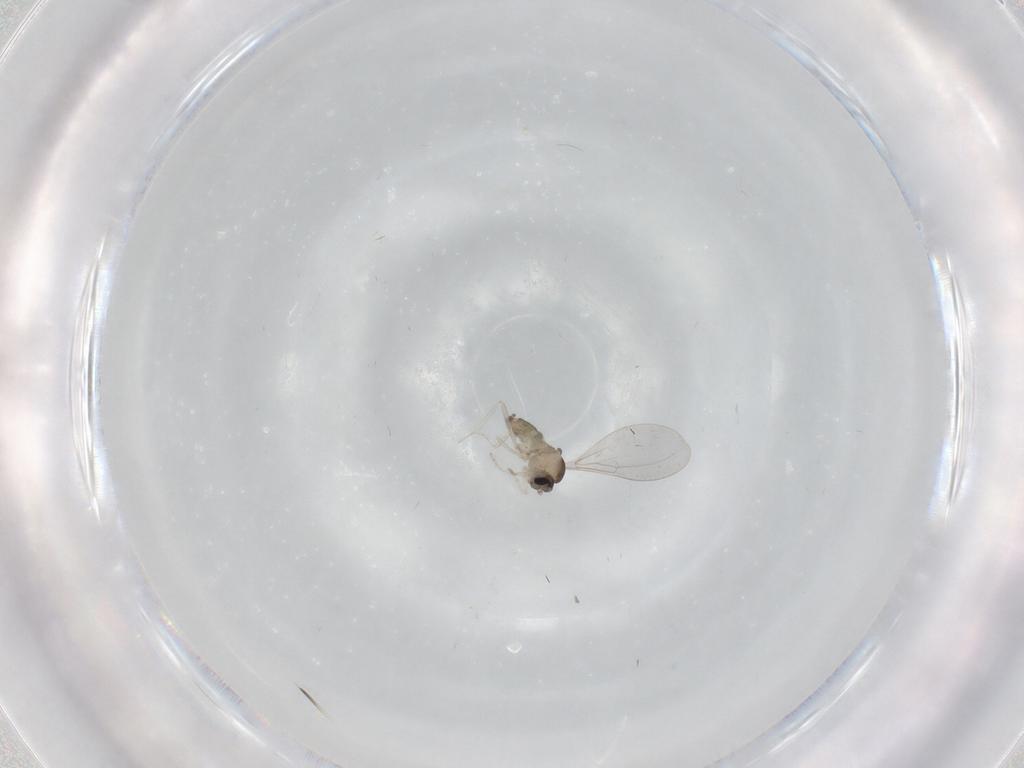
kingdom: Animalia
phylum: Arthropoda
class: Insecta
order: Diptera
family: Cecidomyiidae
